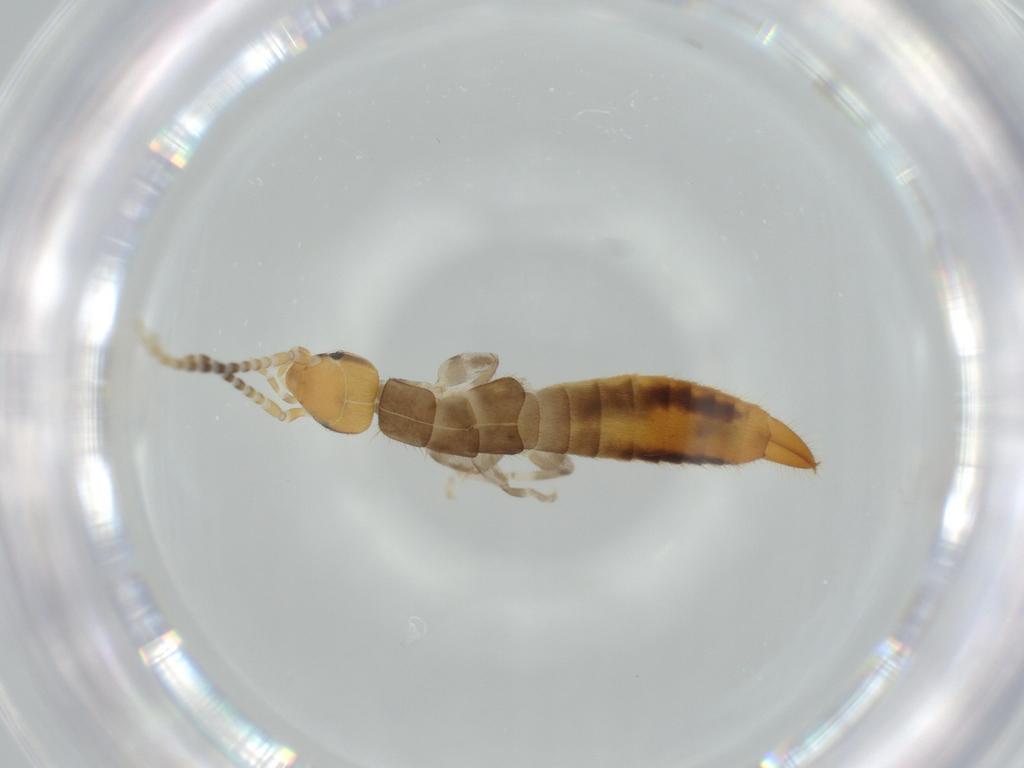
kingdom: Animalia
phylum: Arthropoda
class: Insecta
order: Dermaptera
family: Forficulidae
